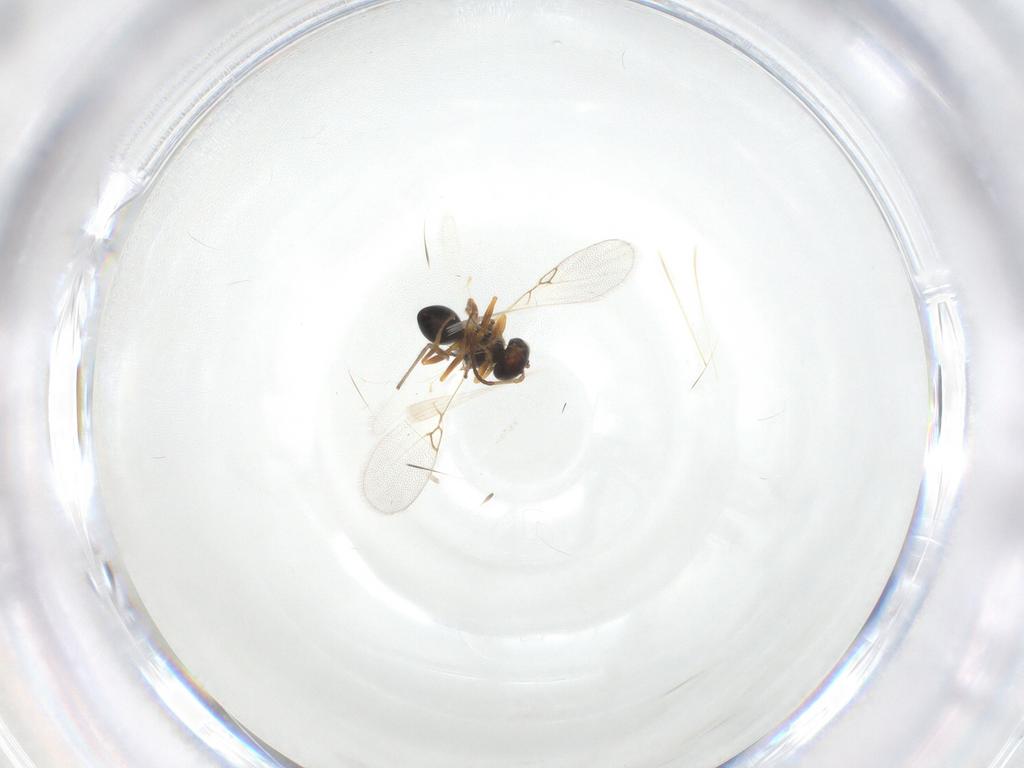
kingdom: Animalia
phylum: Arthropoda
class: Insecta
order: Hymenoptera
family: Figitidae
